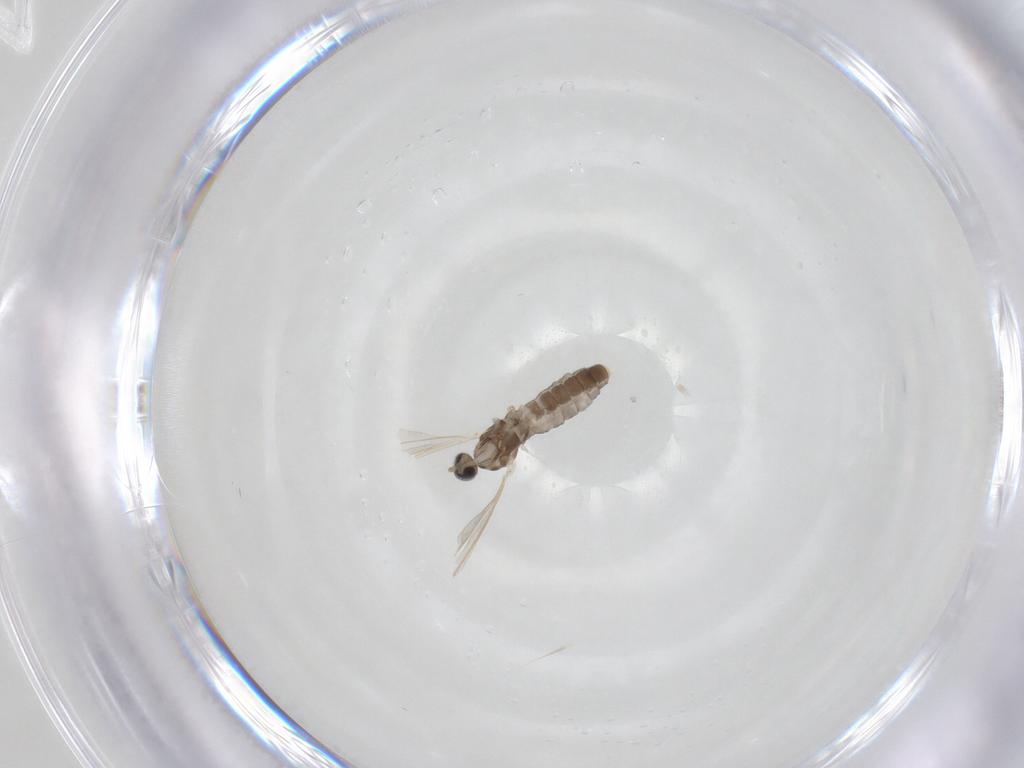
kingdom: Animalia
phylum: Arthropoda
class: Insecta
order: Diptera
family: Cecidomyiidae
